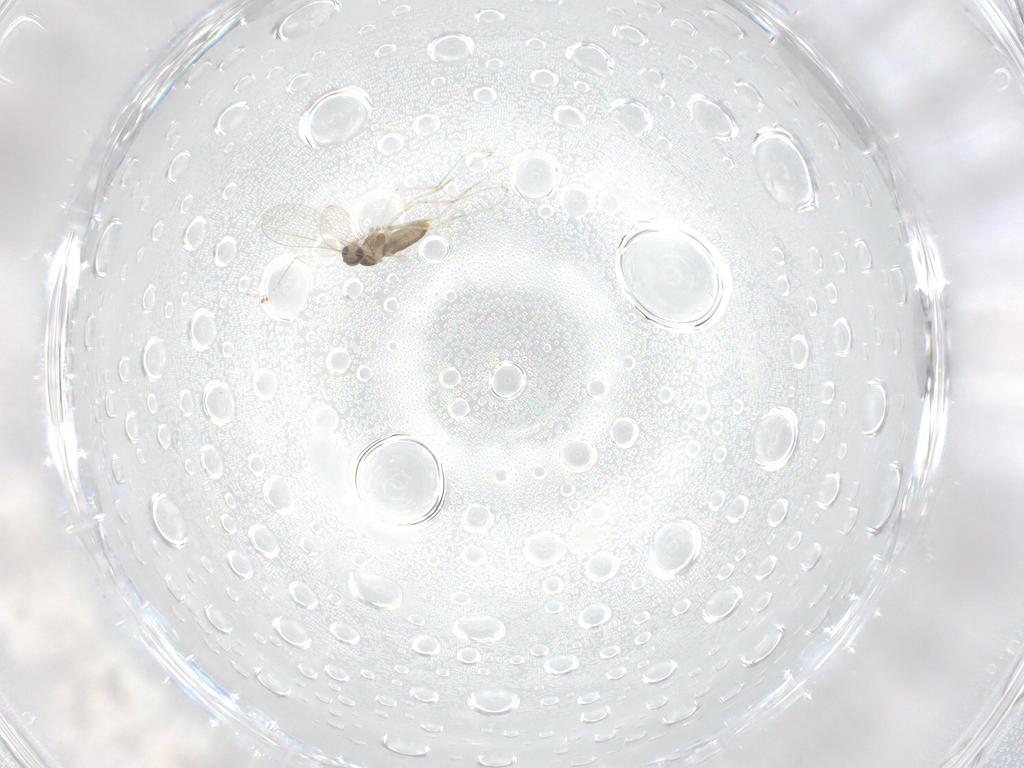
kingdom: Animalia
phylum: Arthropoda
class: Insecta
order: Diptera
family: Cecidomyiidae
